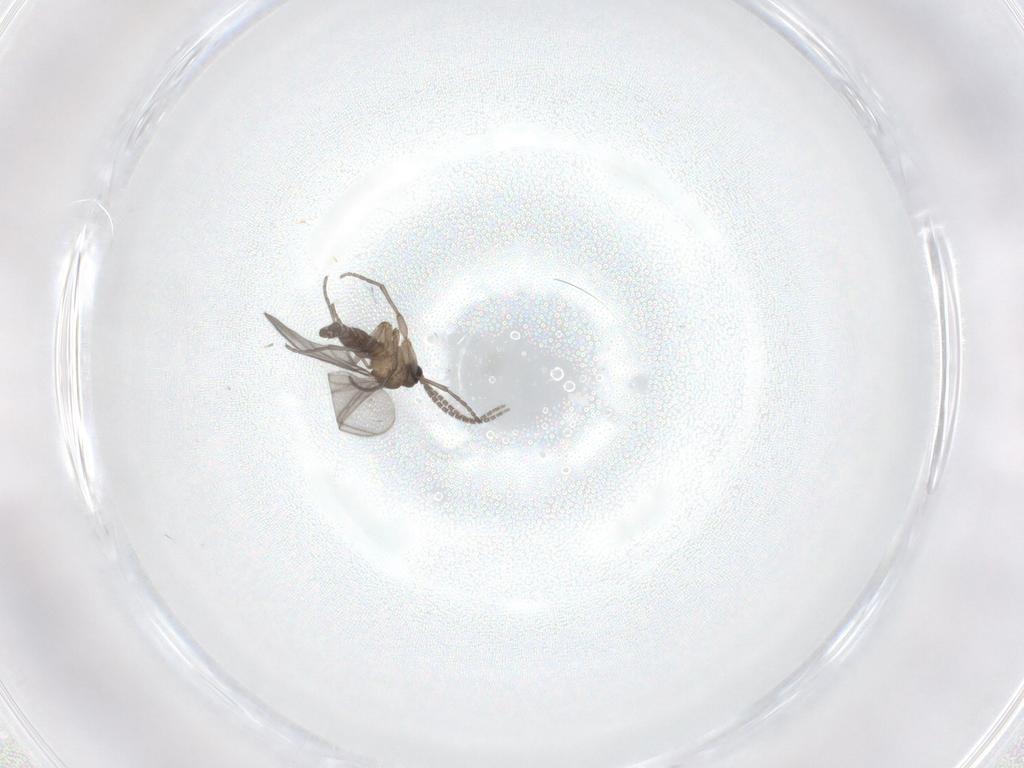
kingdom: Animalia
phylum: Arthropoda
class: Insecta
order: Diptera
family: Sciaridae
